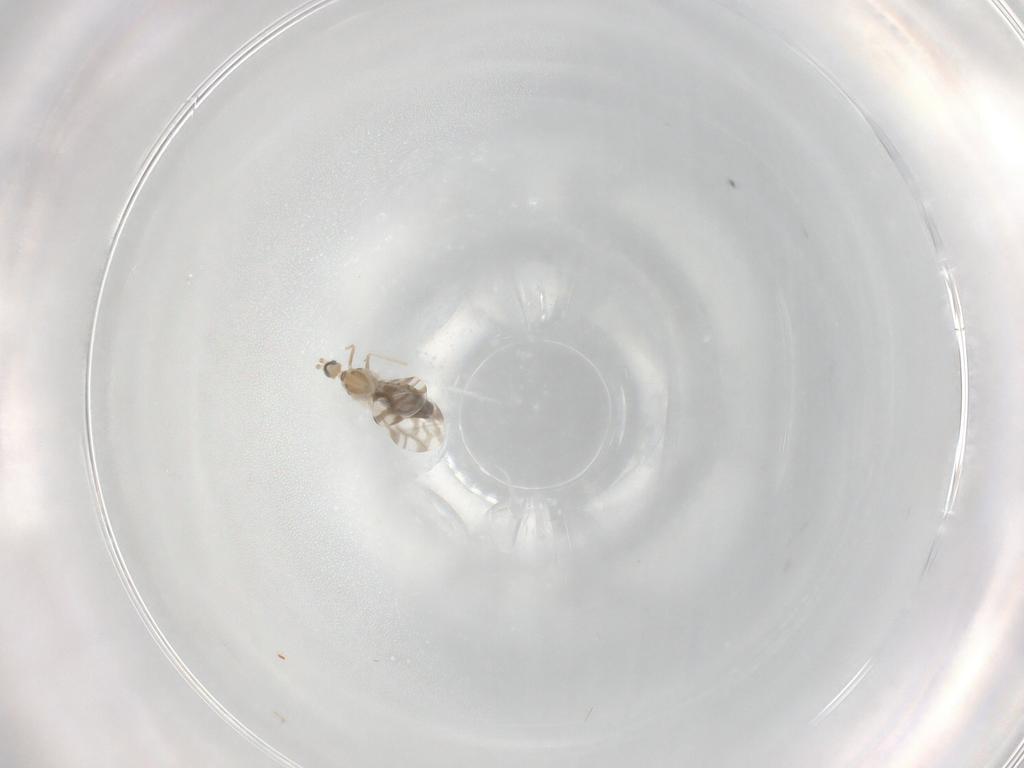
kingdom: Animalia
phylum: Arthropoda
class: Insecta
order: Diptera
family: Cecidomyiidae
